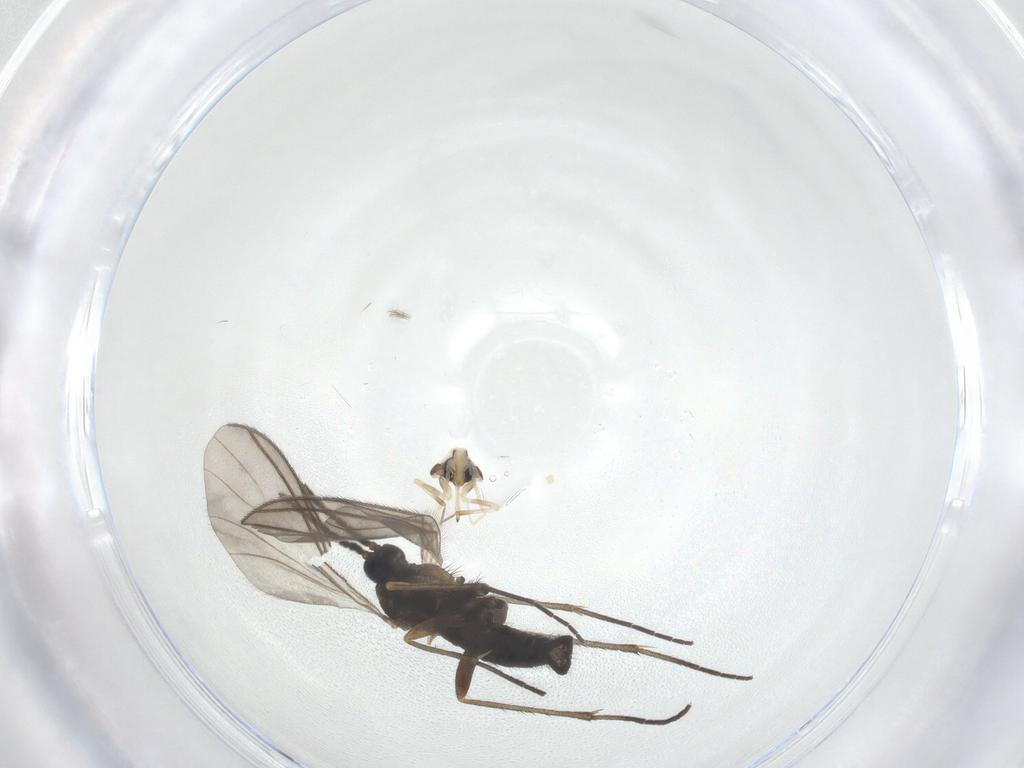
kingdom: Animalia
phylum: Arthropoda
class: Insecta
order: Diptera
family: Sciaridae
